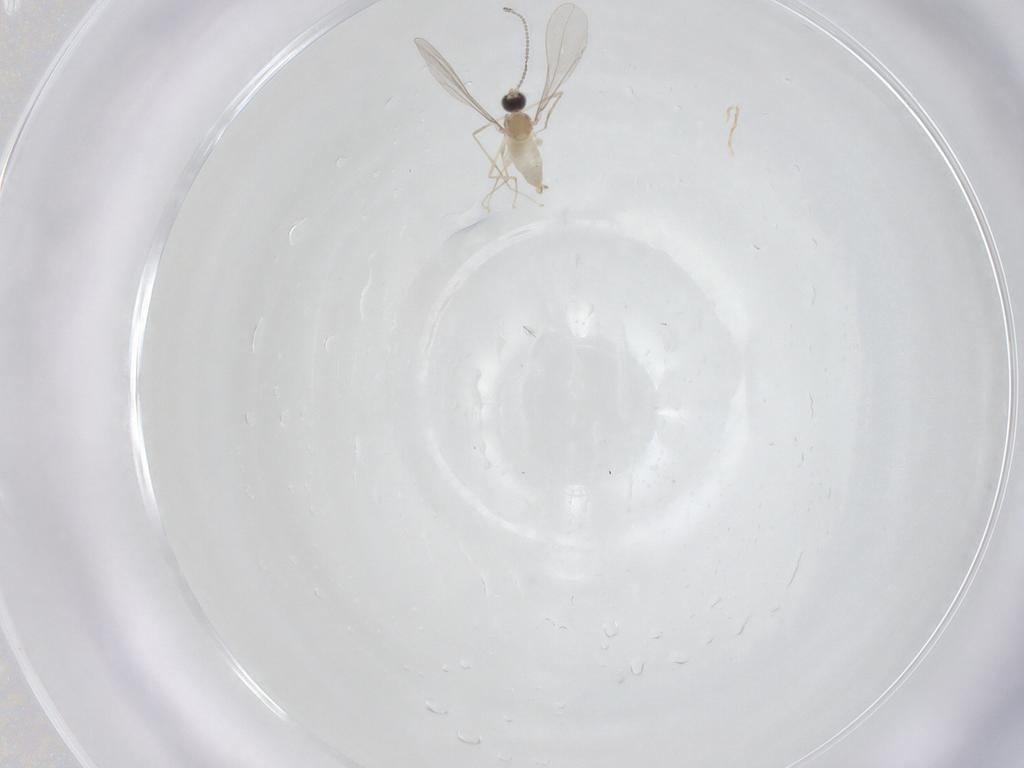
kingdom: Animalia
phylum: Arthropoda
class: Insecta
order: Diptera
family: Cecidomyiidae
